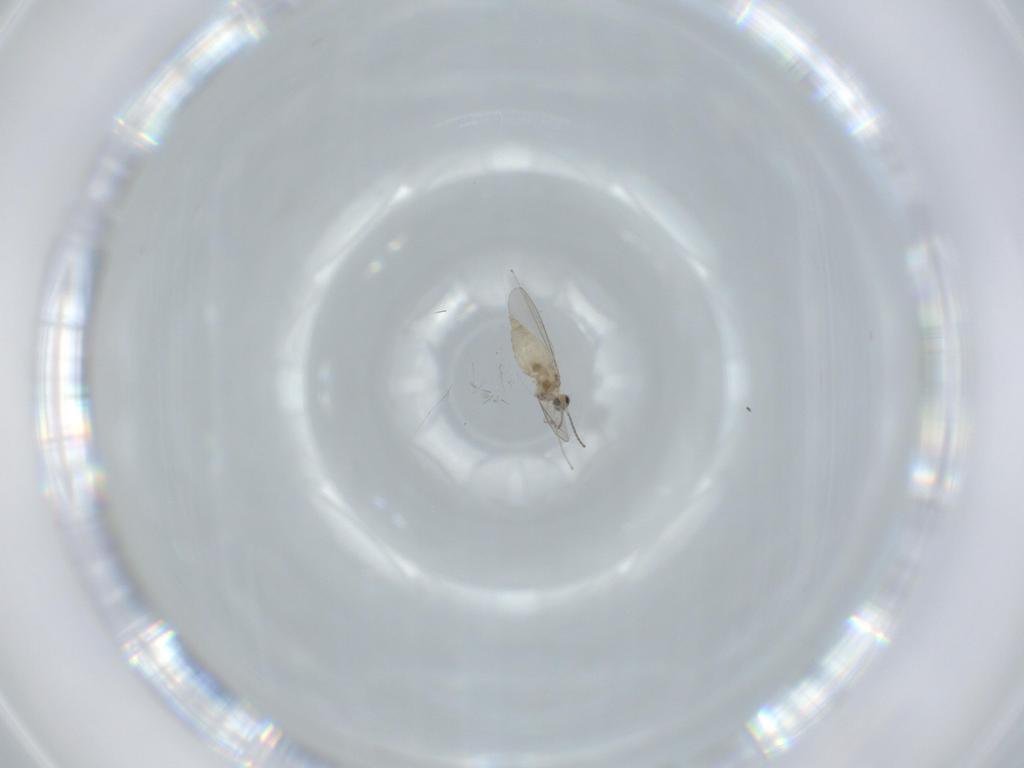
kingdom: Animalia
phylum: Arthropoda
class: Insecta
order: Diptera
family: Cecidomyiidae
